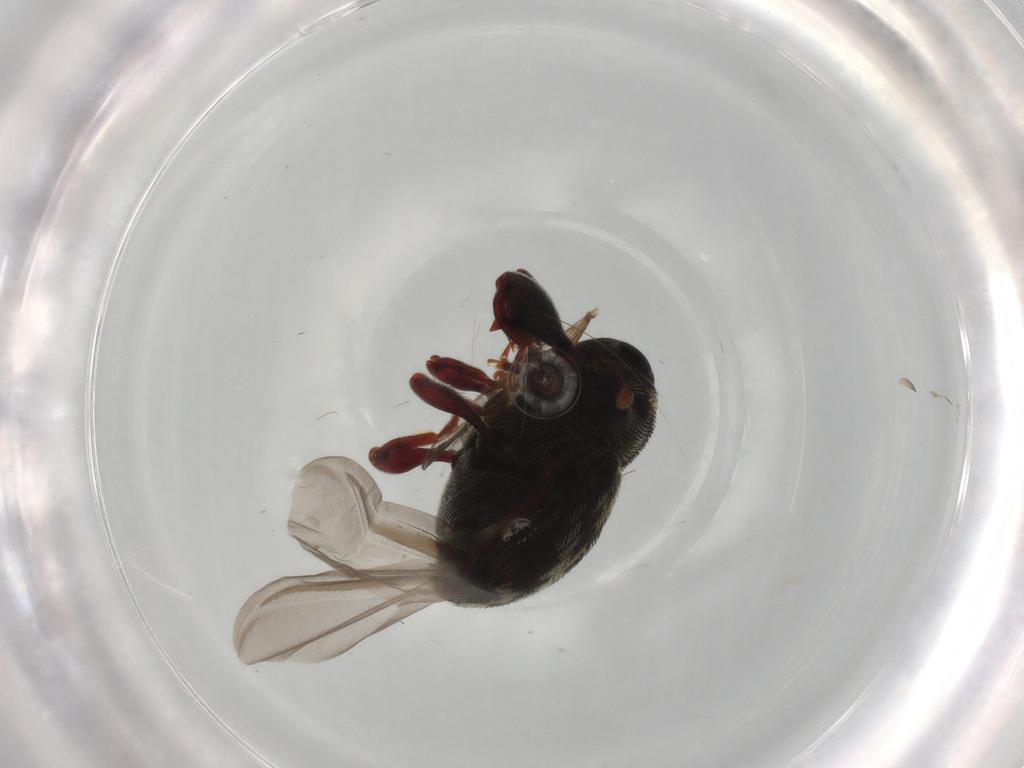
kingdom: Animalia
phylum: Arthropoda
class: Insecta
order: Coleoptera
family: Curculionidae
